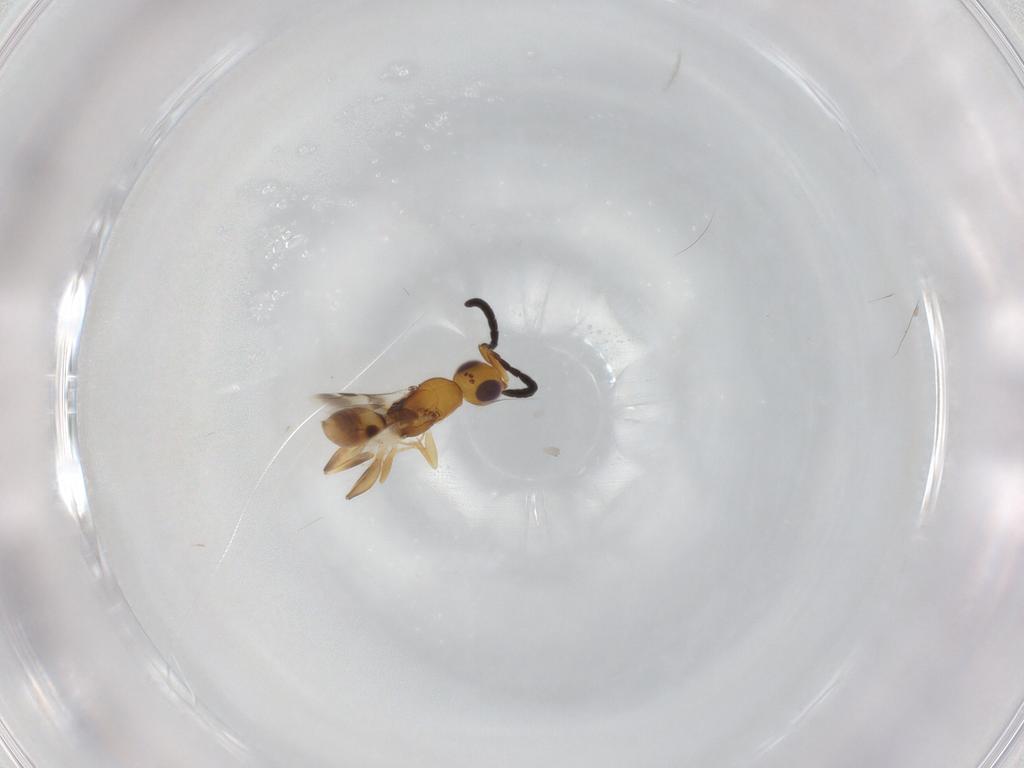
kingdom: Animalia
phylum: Arthropoda
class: Insecta
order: Hymenoptera
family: Megaspilidae
